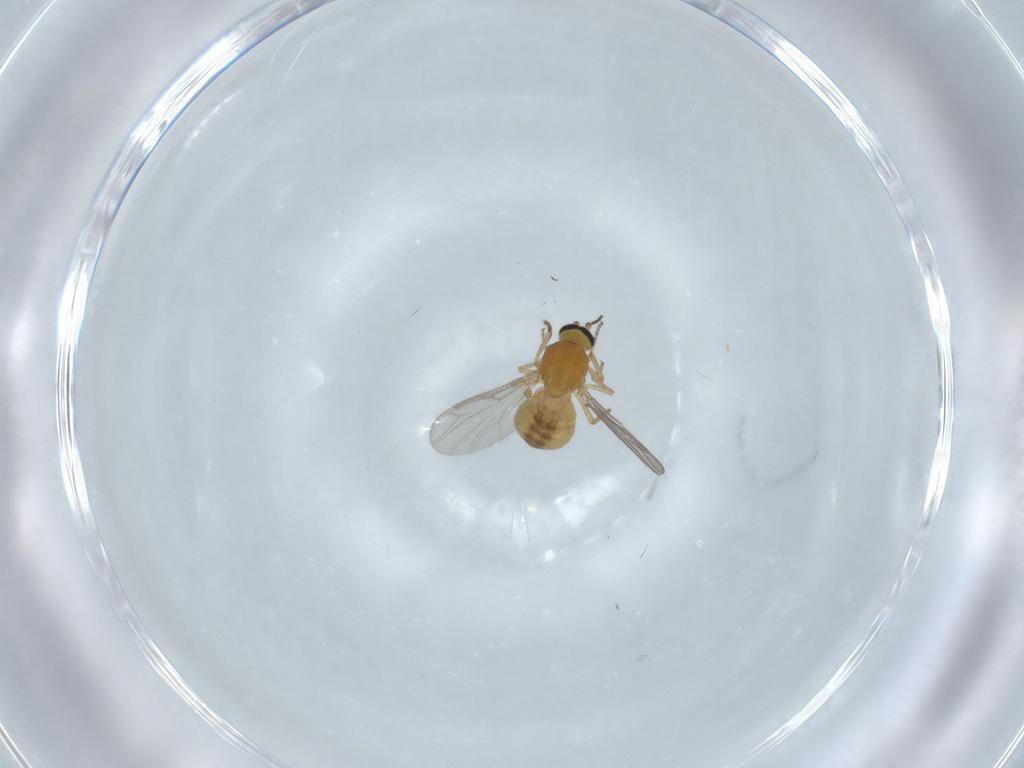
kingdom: Animalia
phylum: Arthropoda
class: Insecta
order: Diptera
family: Ceratopogonidae
